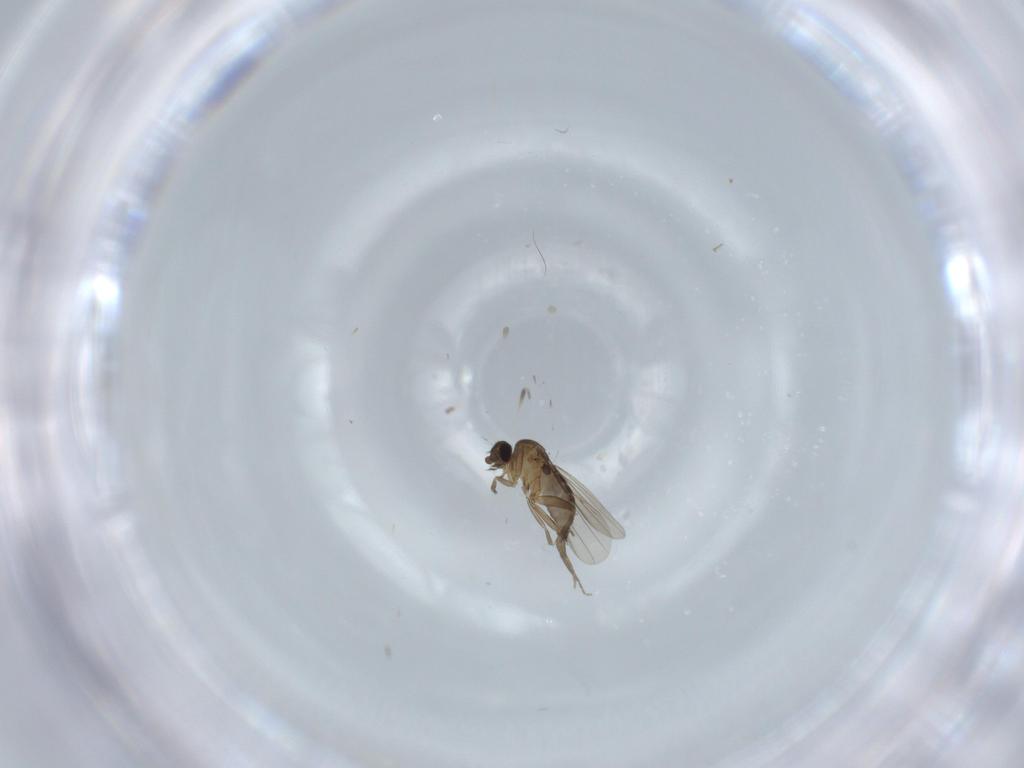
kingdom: Animalia
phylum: Arthropoda
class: Insecta
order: Diptera
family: Phoridae
